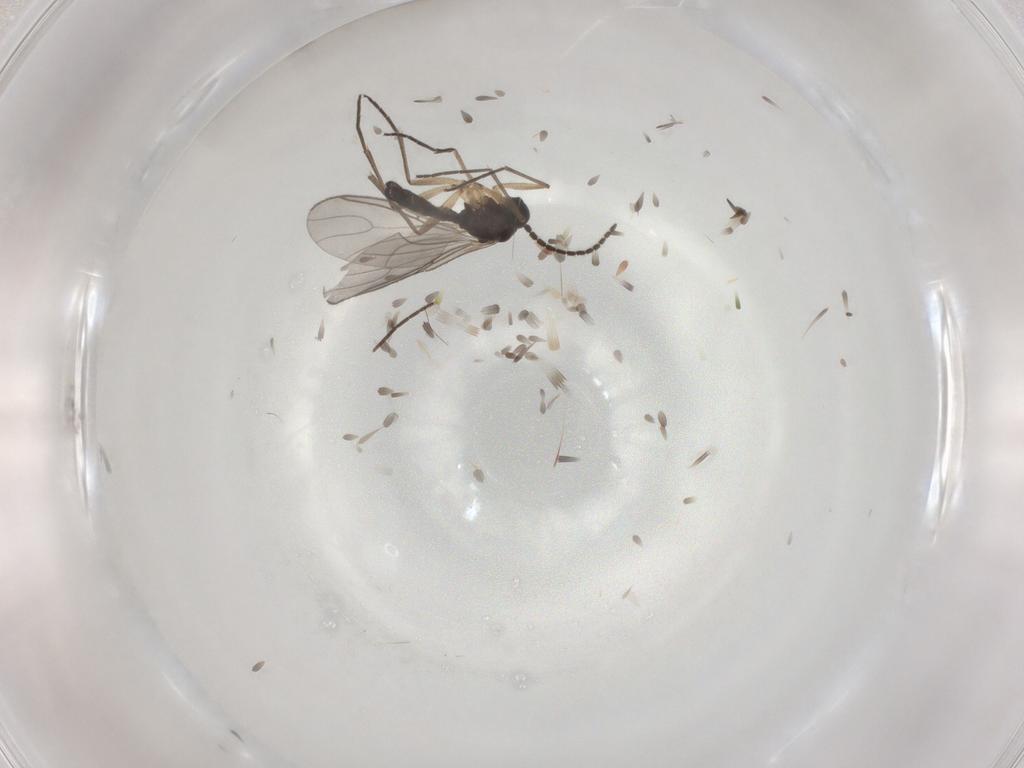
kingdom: Animalia
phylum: Arthropoda
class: Insecta
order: Diptera
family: Sciaridae
